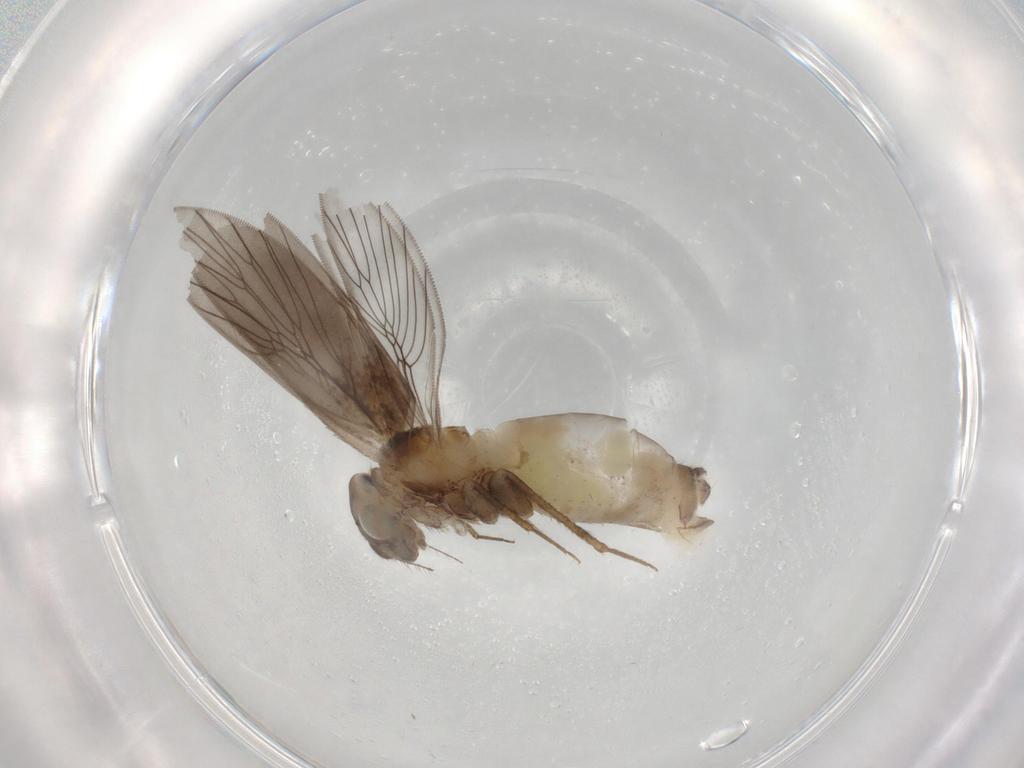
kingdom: Animalia
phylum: Arthropoda
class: Insecta
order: Psocodea
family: Lepidopsocidae
